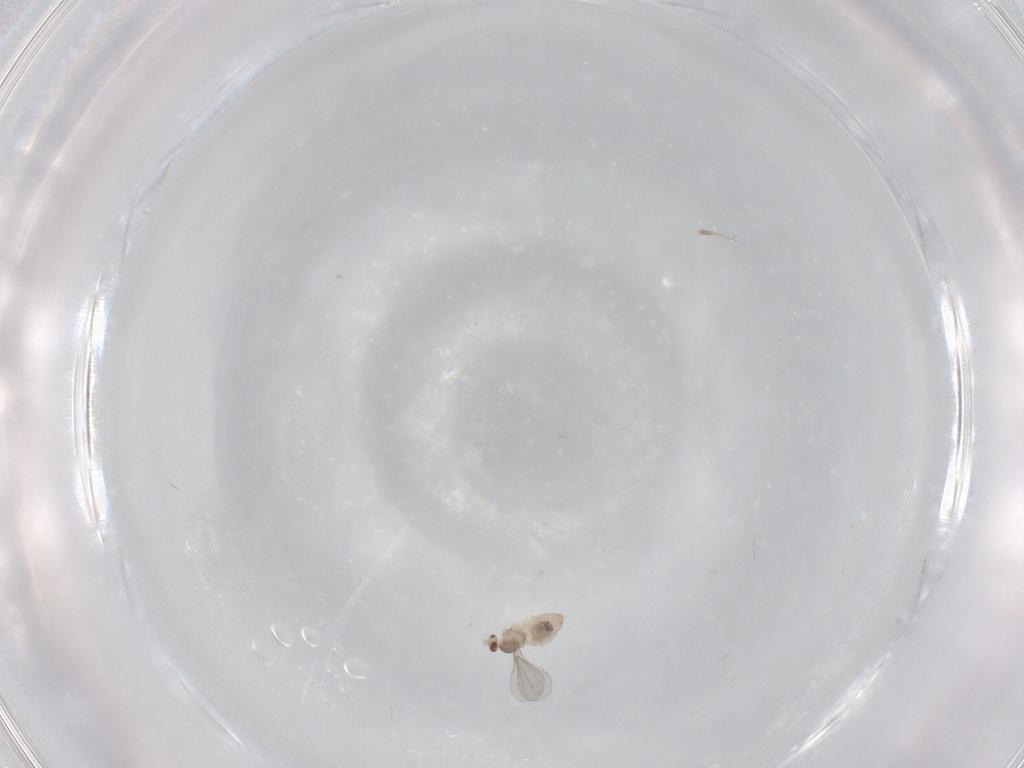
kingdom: Animalia
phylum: Arthropoda
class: Insecta
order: Diptera
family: Cecidomyiidae
